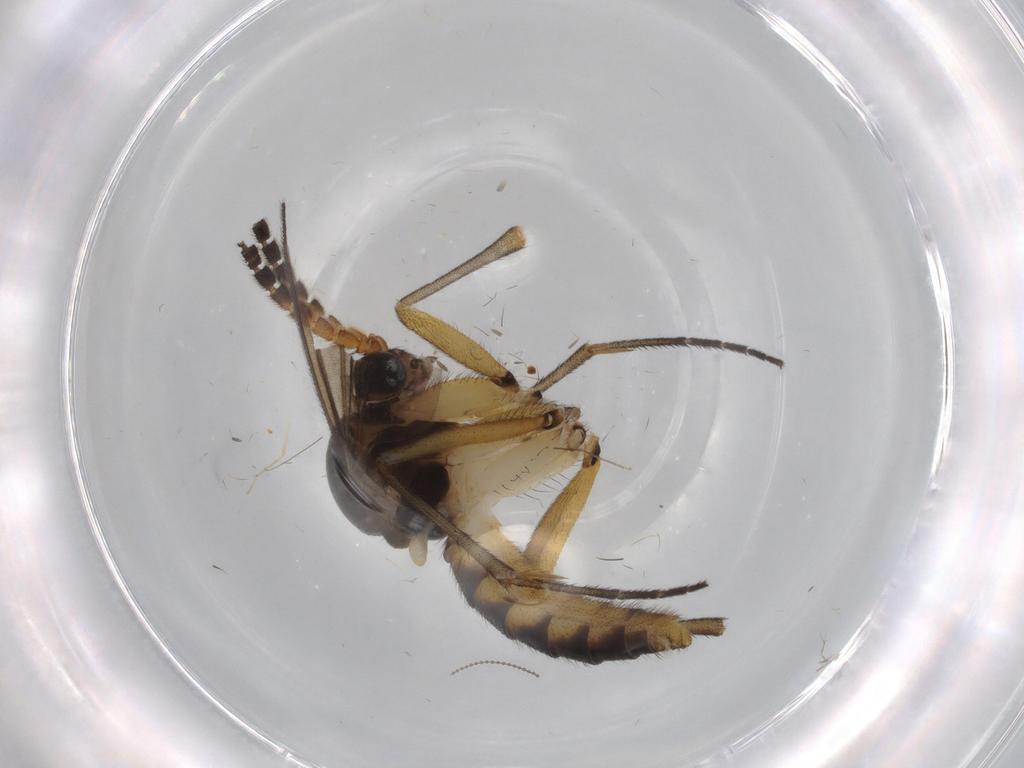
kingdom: Animalia
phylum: Arthropoda
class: Insecta
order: Diptera
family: Mycetophilidae
